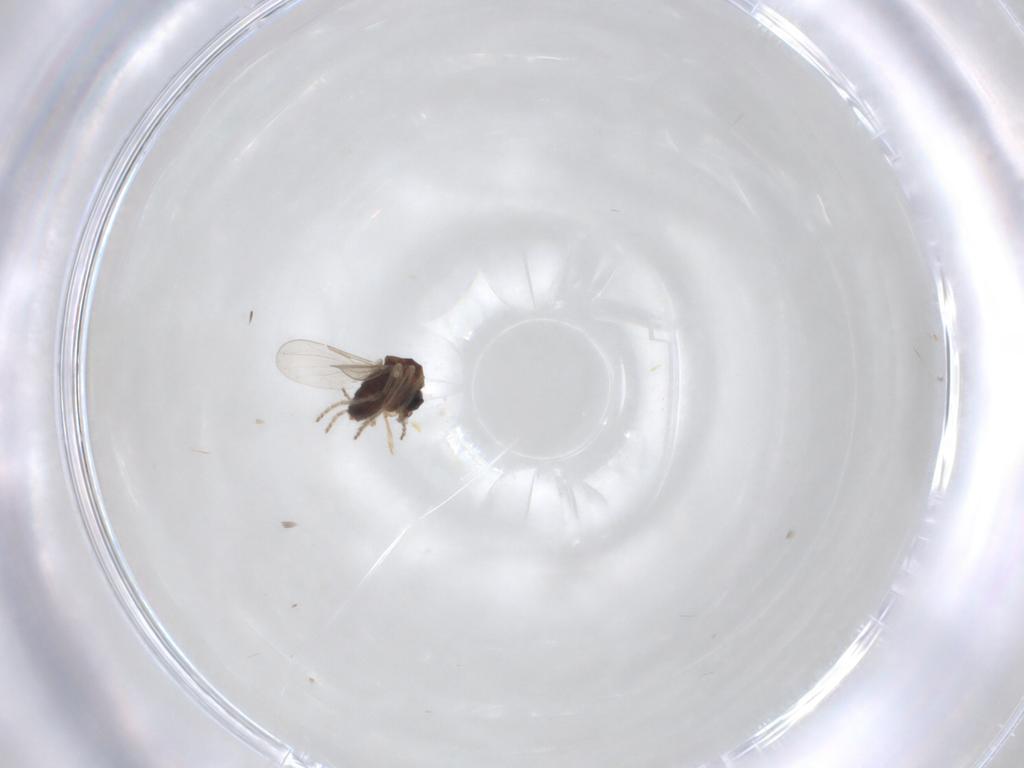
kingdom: Animalia
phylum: Arthropoda
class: Insecta
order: Diptera
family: Ceratopogonidae
